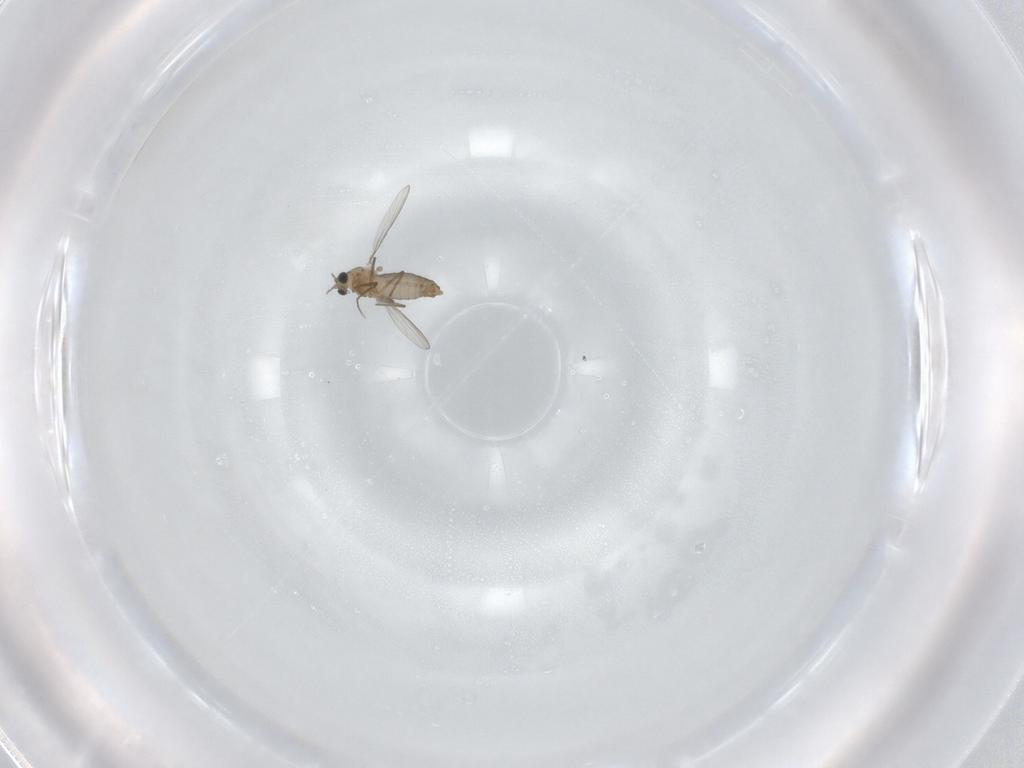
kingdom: Animalia
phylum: Arthropoda
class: Insecta
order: Diptera
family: Chironomidae
